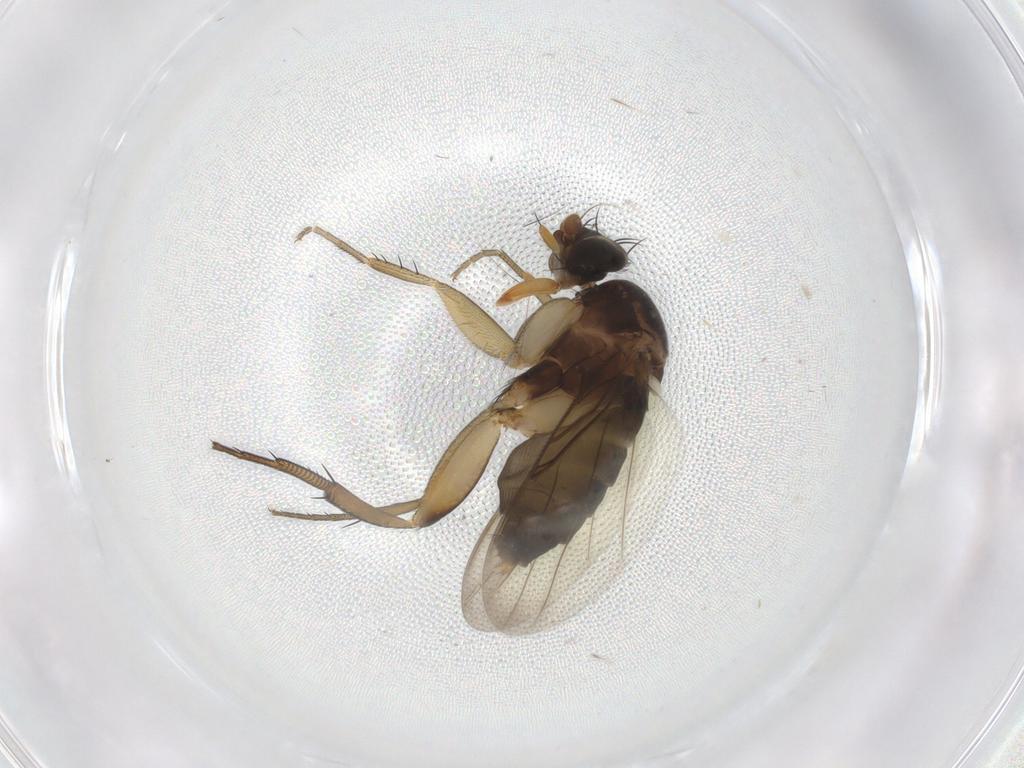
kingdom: Animalia
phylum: Arthropoda
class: Insecta
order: Diptera
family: Phoridae
